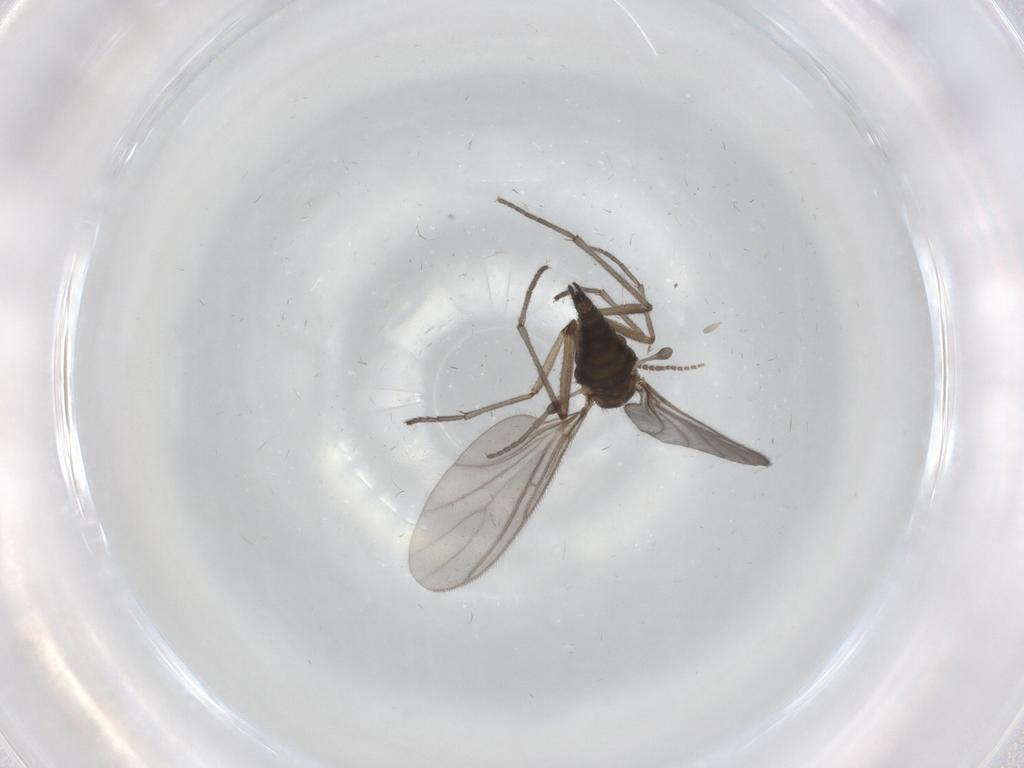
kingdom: Animalia
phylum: Arthropoda
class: Insecta
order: Diptera
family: Sciaridae
